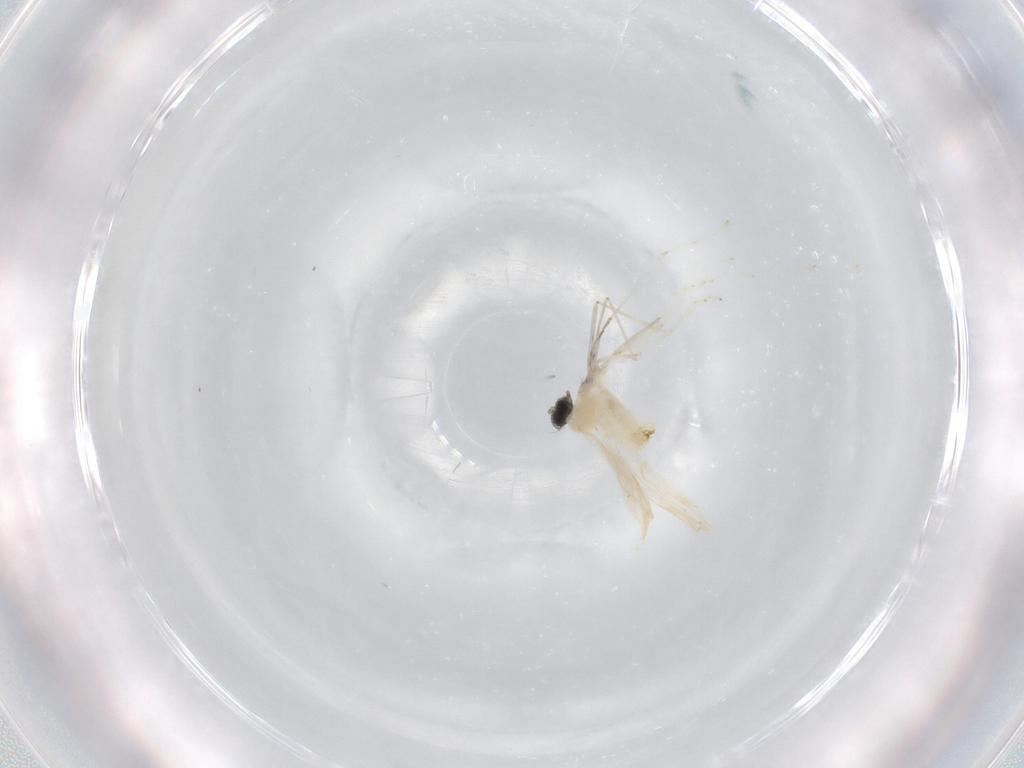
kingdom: Animalia
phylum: Arthropoda
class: Insecta
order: Diptera
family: Cecidomyiidae
